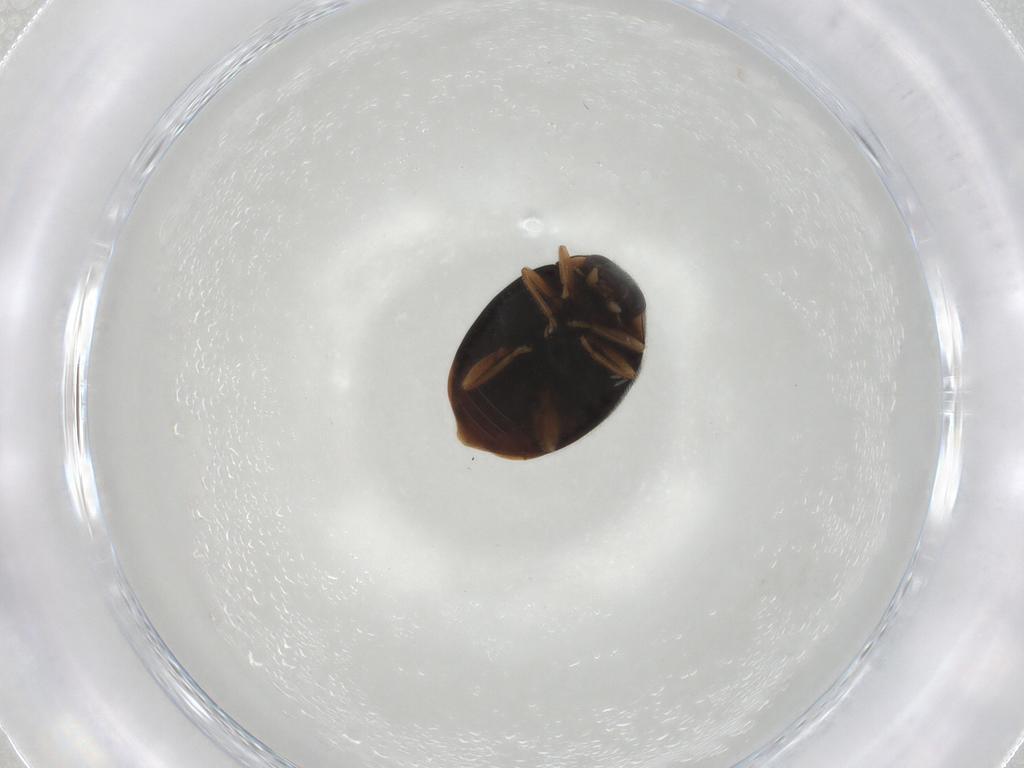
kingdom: Animalia
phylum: Arthropoda
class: Insecta
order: Coleoptera
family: Coccinellidae
